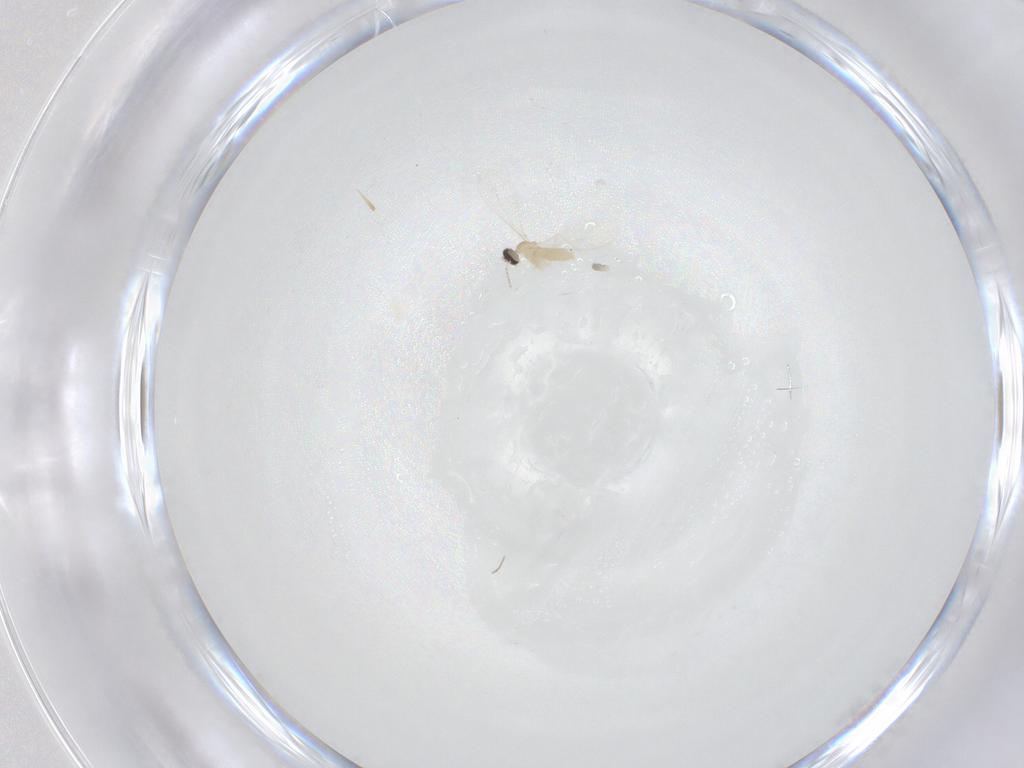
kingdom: Animalia
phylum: Arthropoda
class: Insecta
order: Diptera
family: Cecidomyiidae
